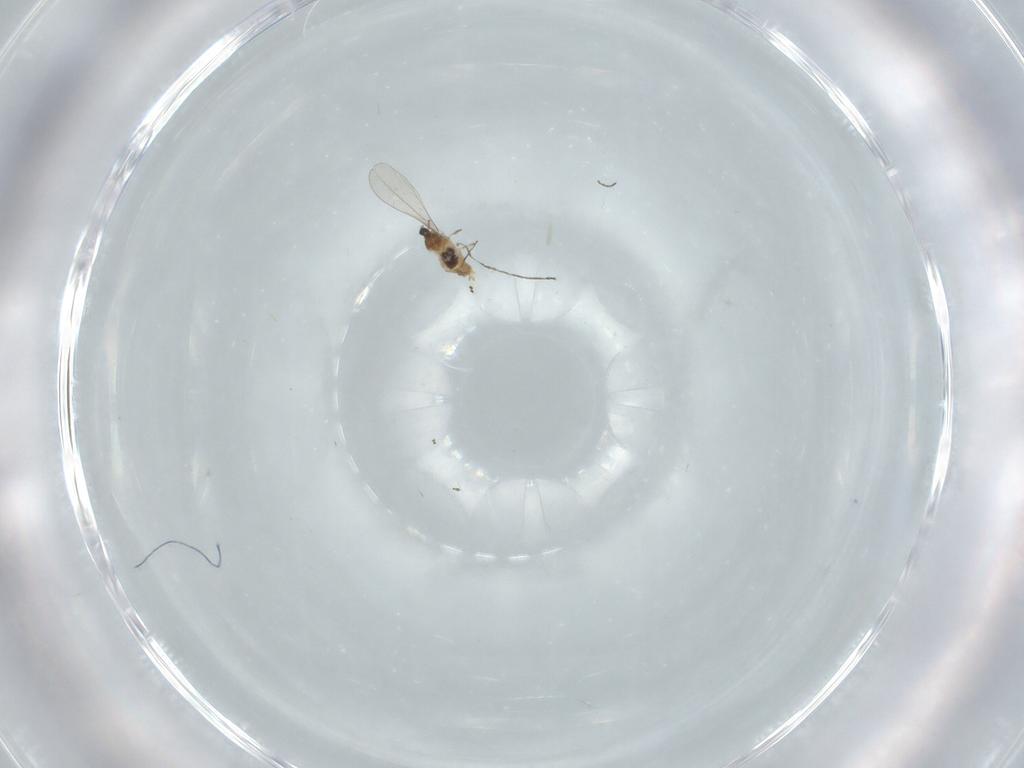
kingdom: Animalia
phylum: Arthropoda
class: Insecta
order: Diptera
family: Cecidomyiidae
